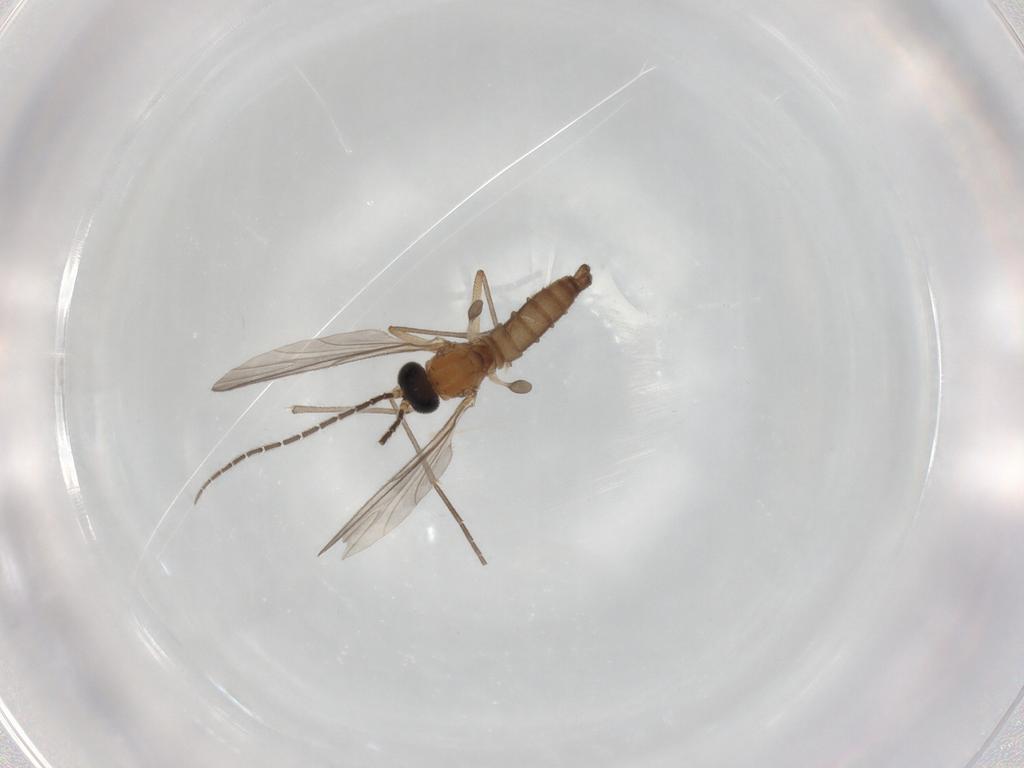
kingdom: Animalia
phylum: Arthropoda
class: Insecta
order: Diptera
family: Sciaridae
